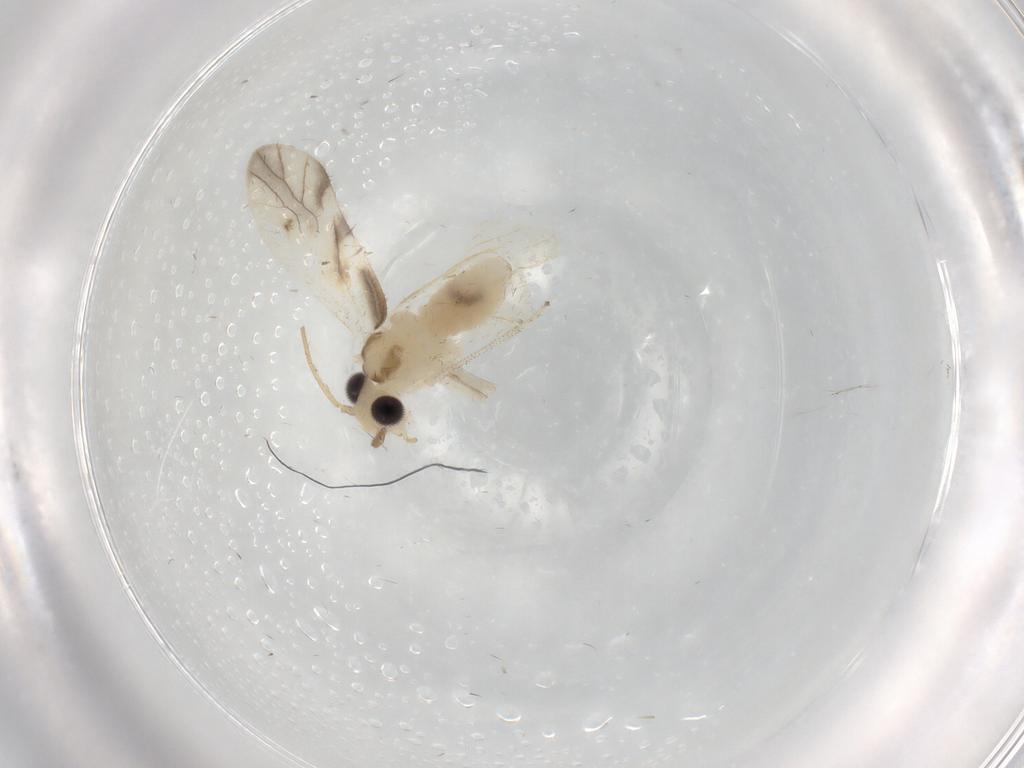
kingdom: Animalia
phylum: Arthropoda
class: Insecta
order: Psocodea
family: Caeciliusidae
